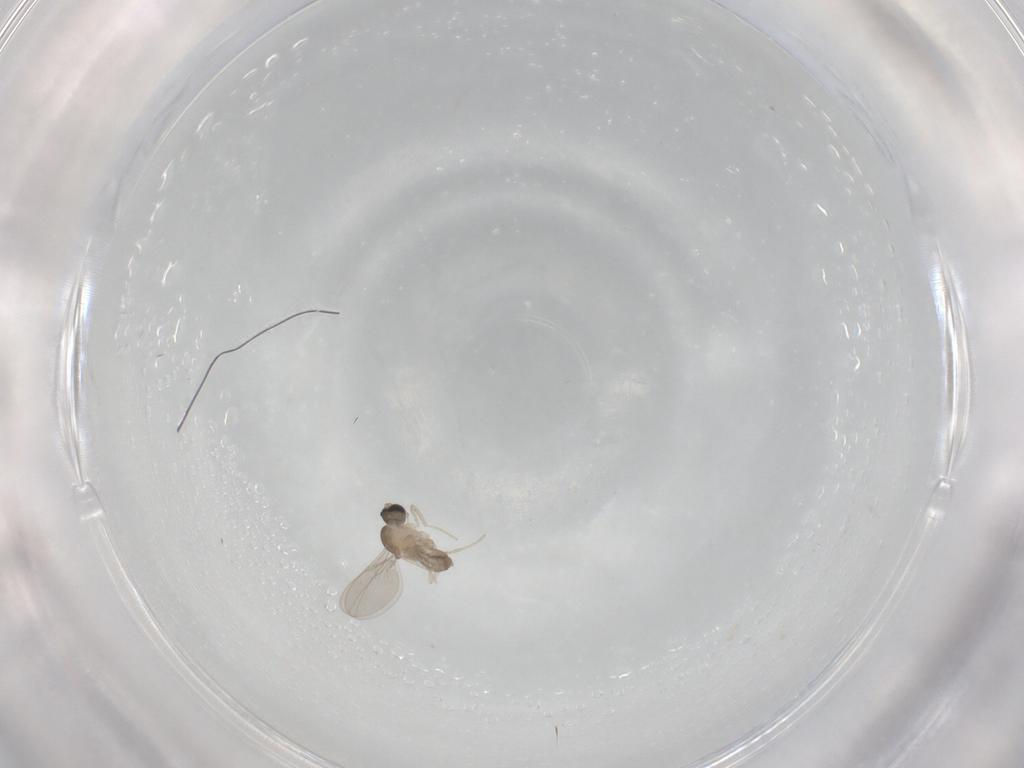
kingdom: Animalia
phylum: Arthropoda
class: Insecta
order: Diptera
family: Cecidomyiidae
